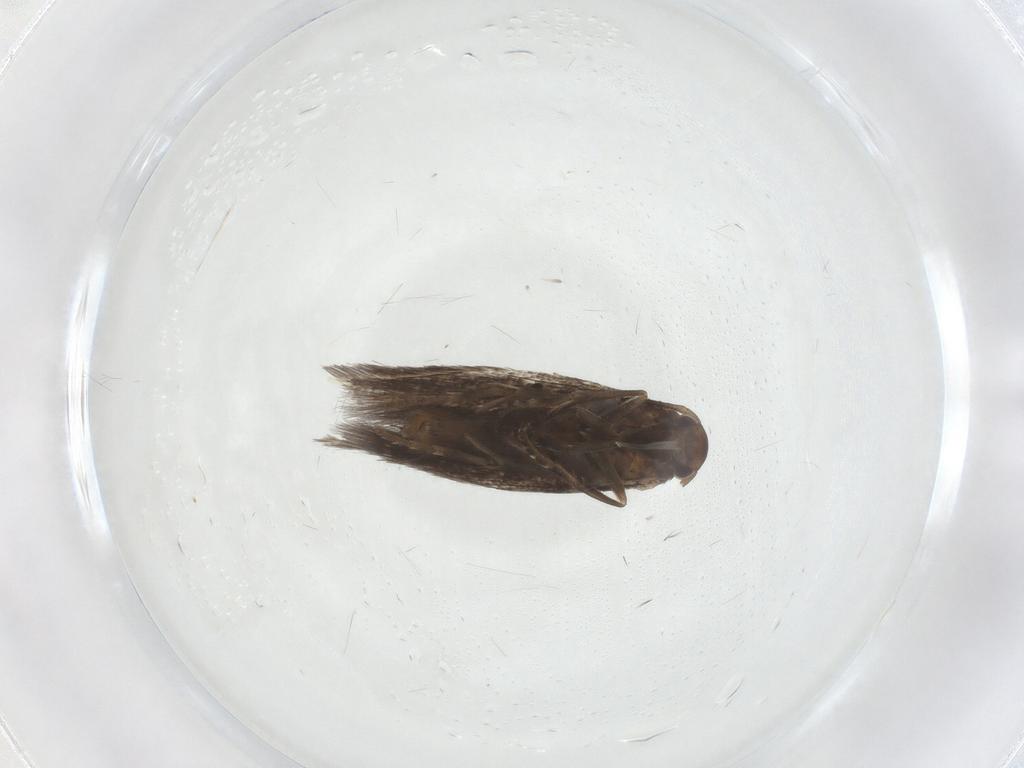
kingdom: Animalia
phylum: Arthropoda
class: Insecta
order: Lepidoptera
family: Elachistidae
